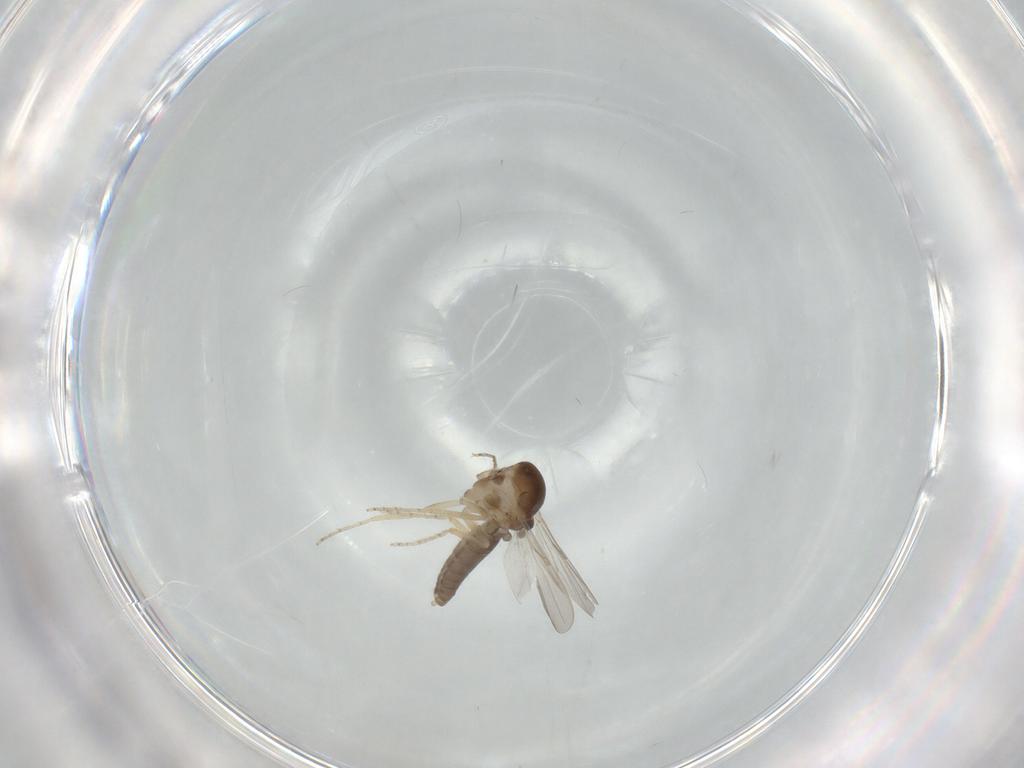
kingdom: Animalia
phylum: Arthropoda
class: Insecta
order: Diptera
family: Ceratopogonidae
